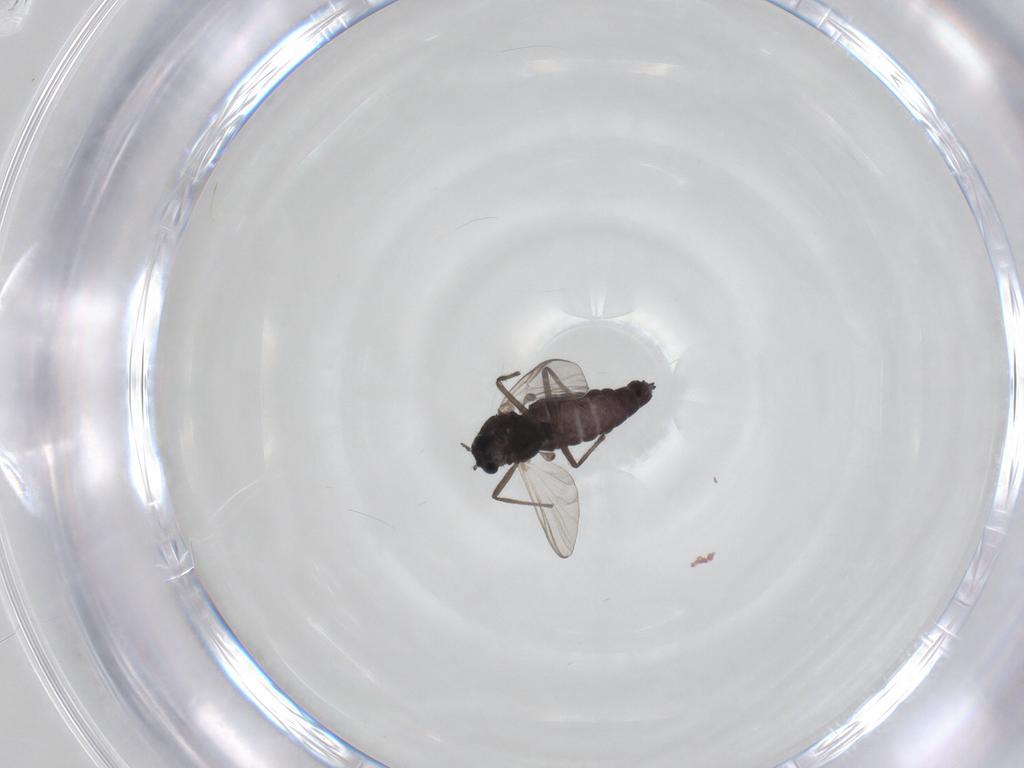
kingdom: Animalia
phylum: Arthropoda
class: Insecta
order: Diptera
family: Chironomidae
